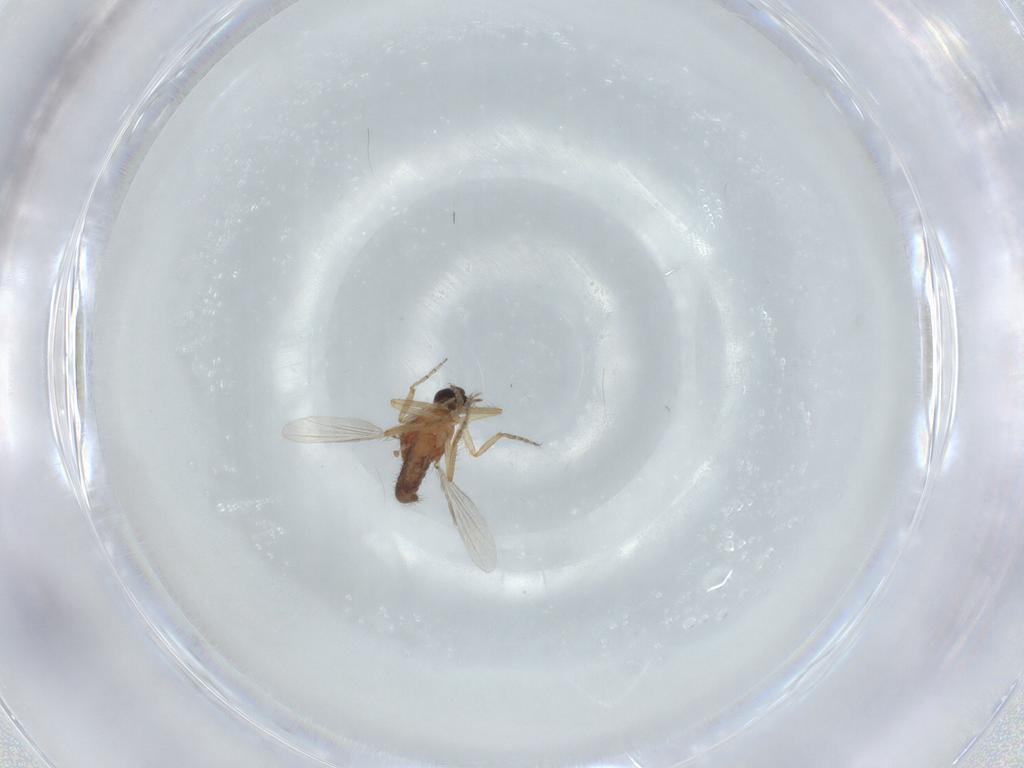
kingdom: Animalia
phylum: Arthropoda
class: Insecta
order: Diptera
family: Ceratopogonidae
